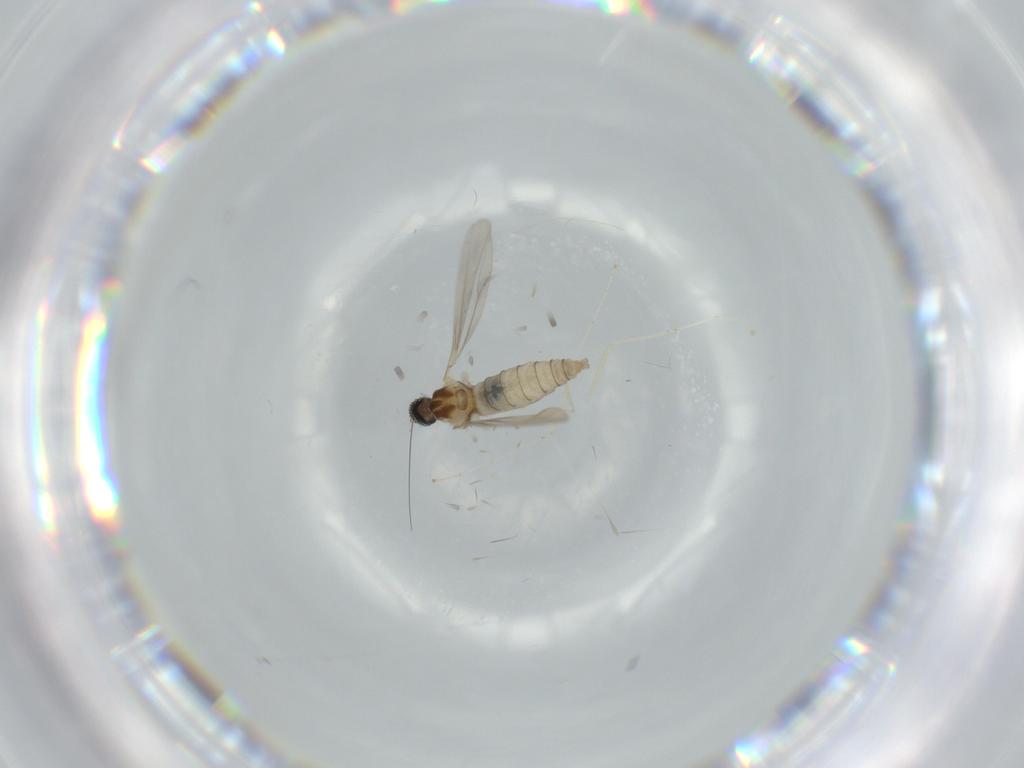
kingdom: Animalia
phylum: Arthropoda
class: Insecta
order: Diptera
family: Cecidomyiidae
